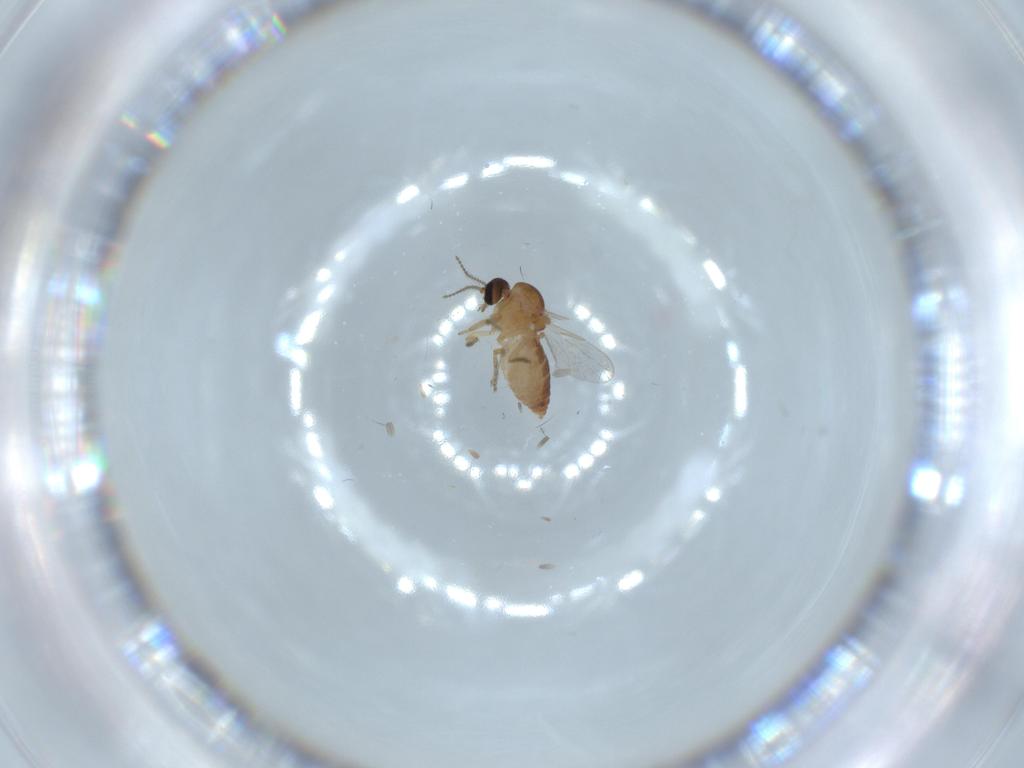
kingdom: Animalia
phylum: Arthropoda
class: Insecta
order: Diptera
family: Ceratopogonidae
